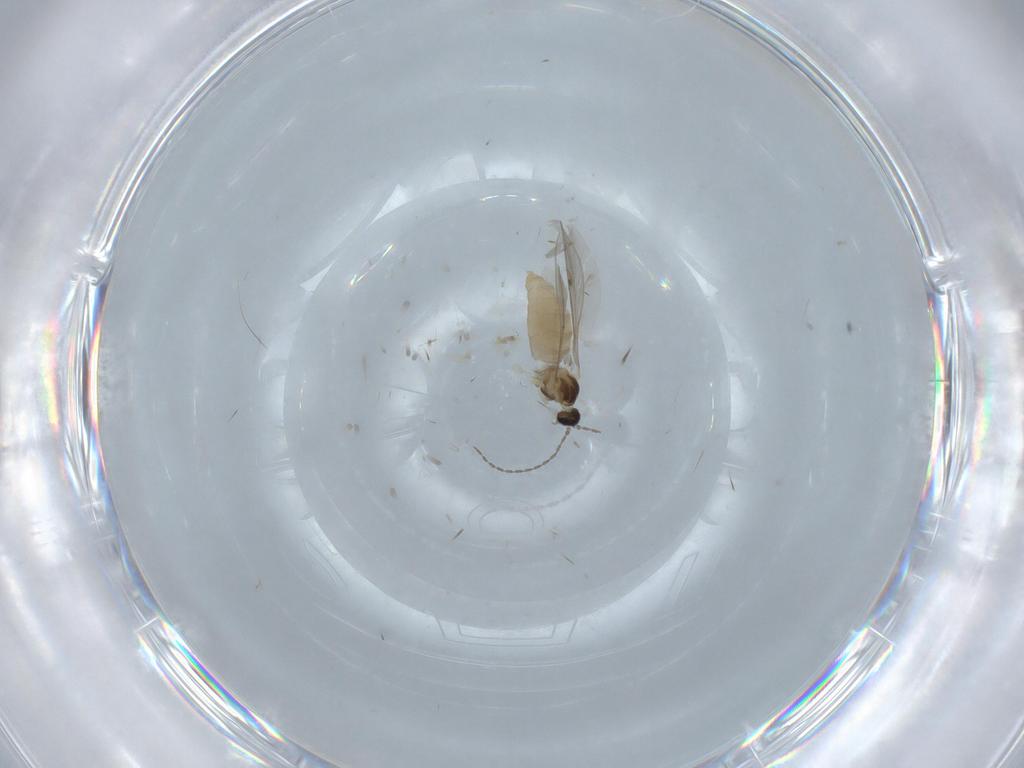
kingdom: Animalia
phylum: Arthropoda
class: Insecta
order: Diptera
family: Cecidomyiidae
